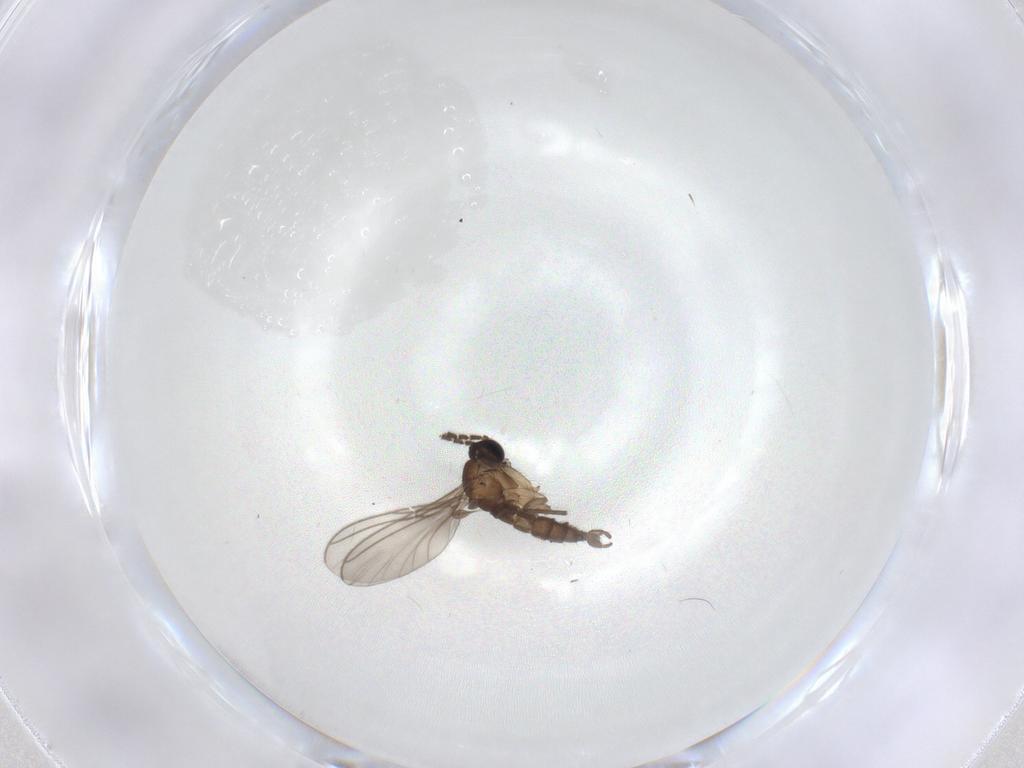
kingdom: Animalia
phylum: Arthropoda
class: Insecta
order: Diptera
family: Sciaridae
